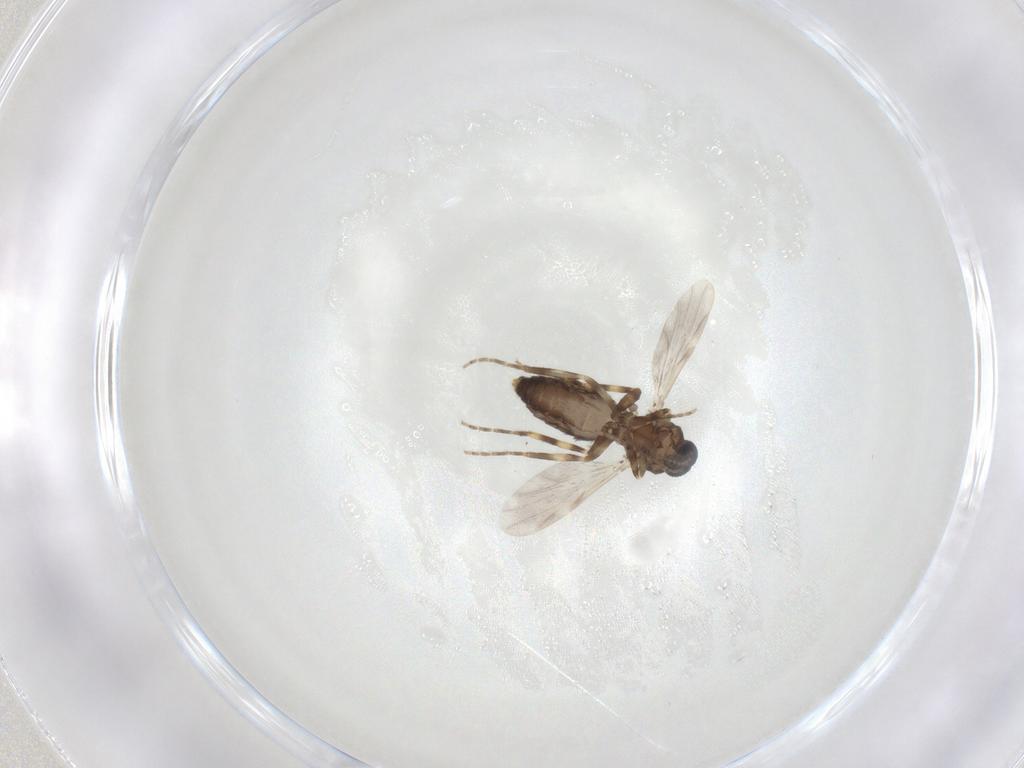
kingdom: Animalia
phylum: Arthropoda
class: Insecta
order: Diptera
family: Ceratopogonidae
